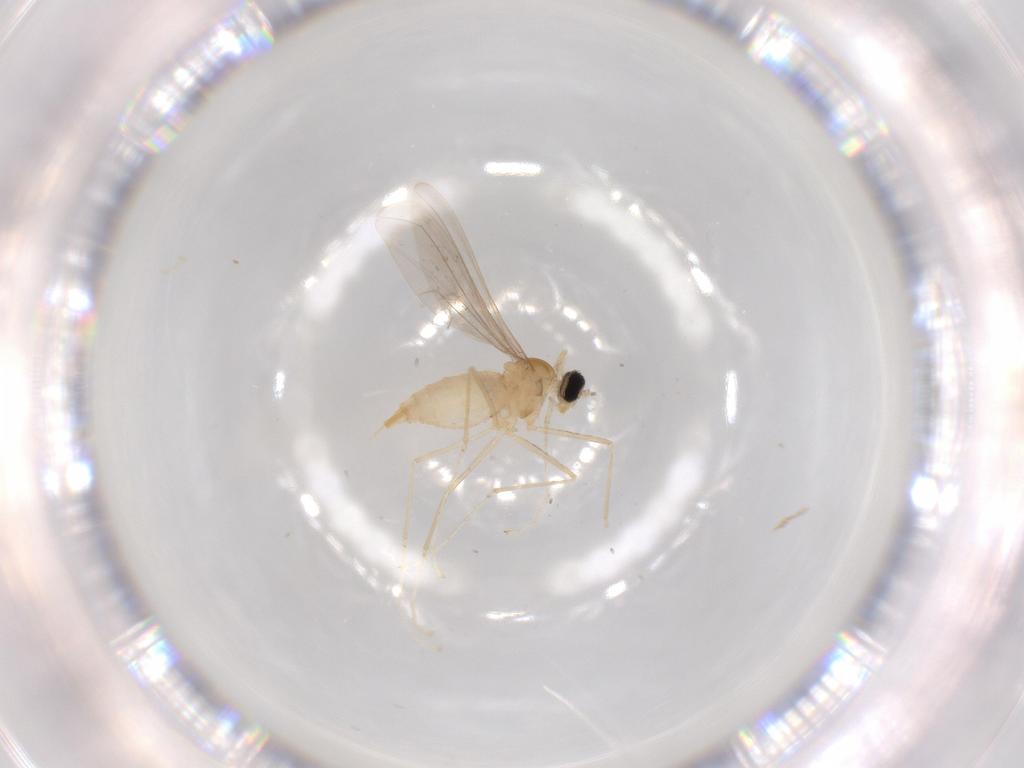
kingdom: Animalia
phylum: Arthropoda
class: Insecta
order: Diptera
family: Cecidomyiidae
